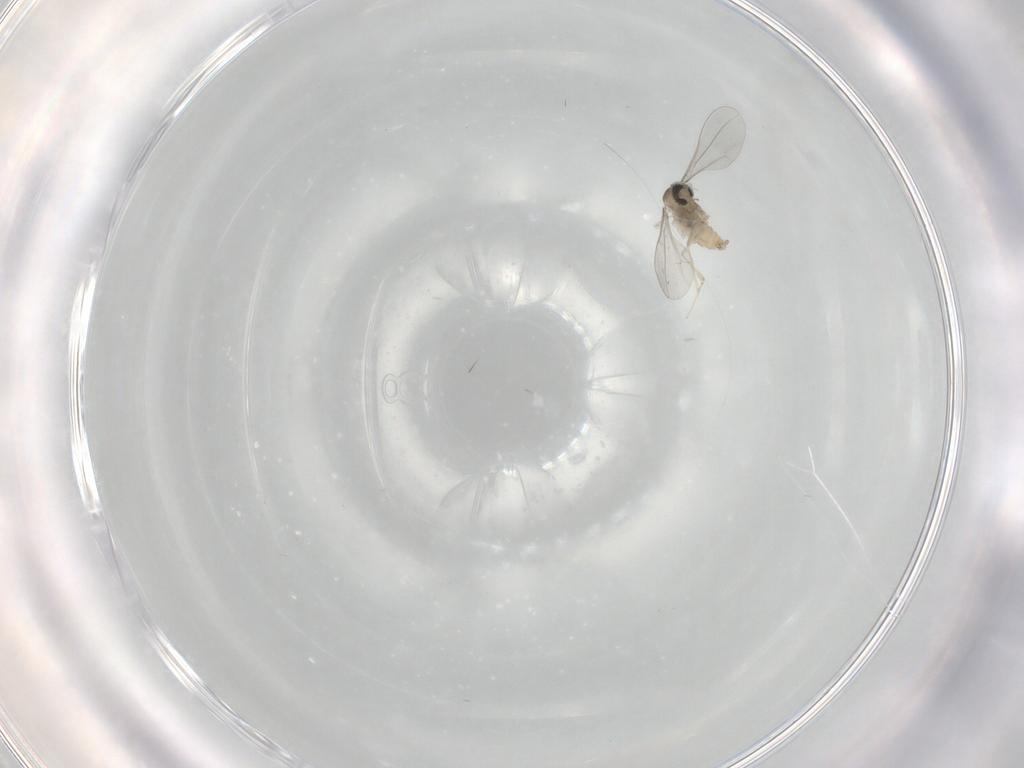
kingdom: Animalia
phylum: Arthropoda
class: Insecta
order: Diptera
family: Cecidomyiidae
